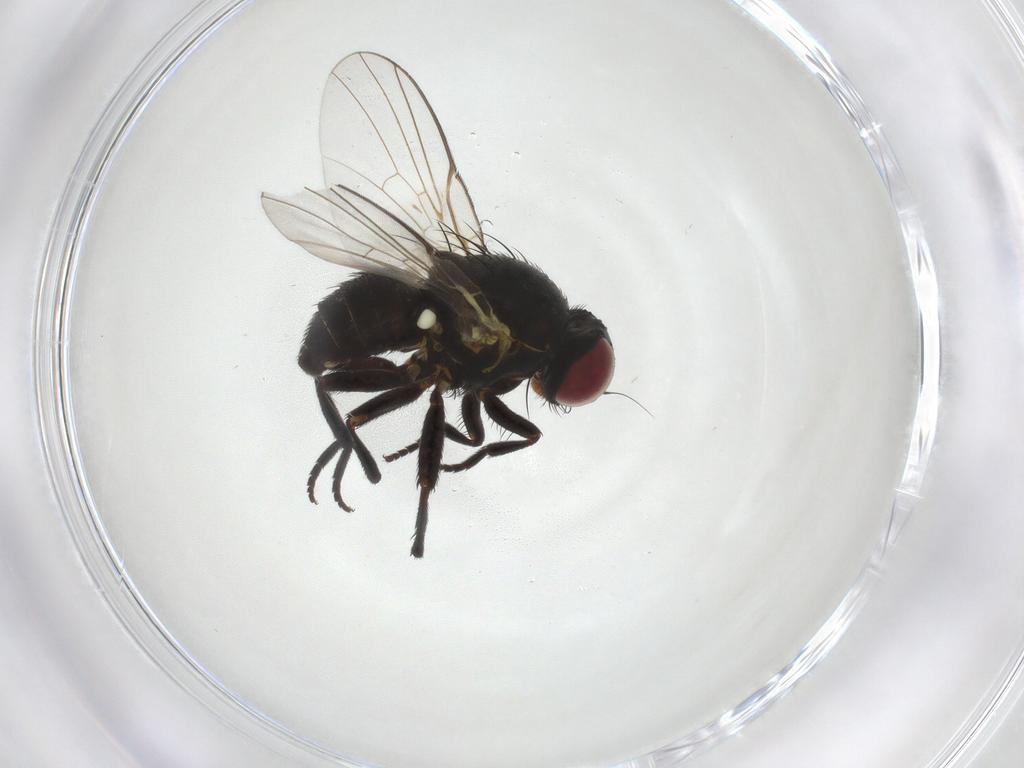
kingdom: Animalia
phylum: Arthropoda
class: Insecta
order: Diptera
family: Agromyzidae
